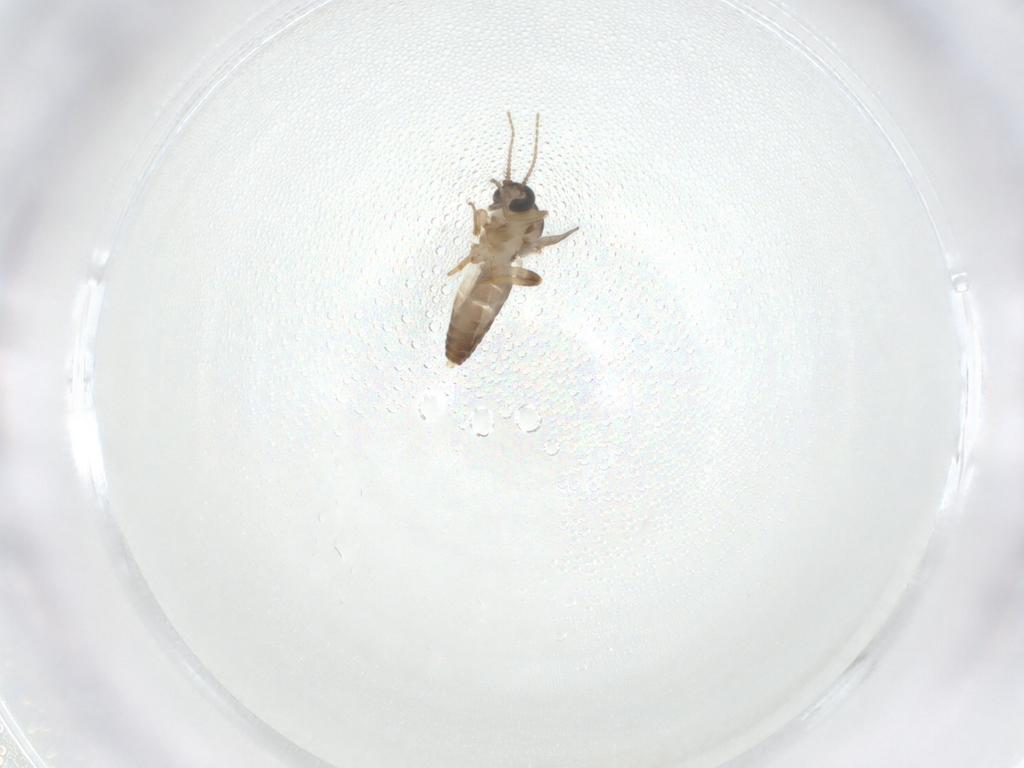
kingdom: Animalia
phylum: Arthropoda
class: Insecta
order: Diptera
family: Ceratopogonidae
